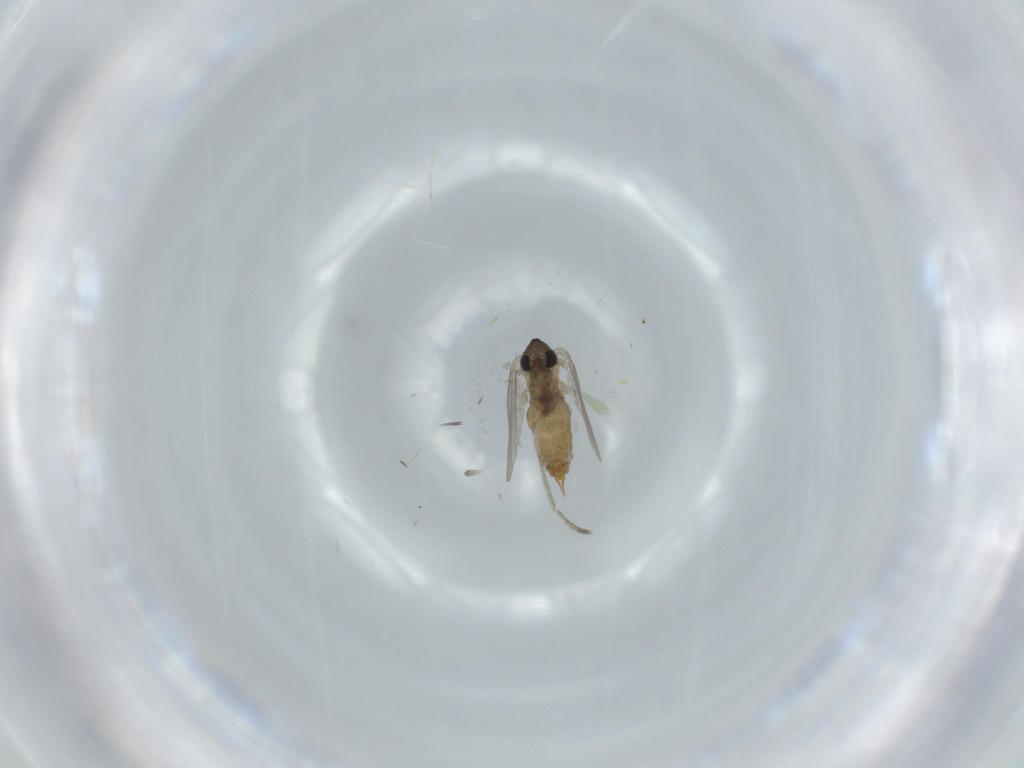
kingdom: Animalia
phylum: Arthropoda
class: Insecta
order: Diptera
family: Psychodidae
